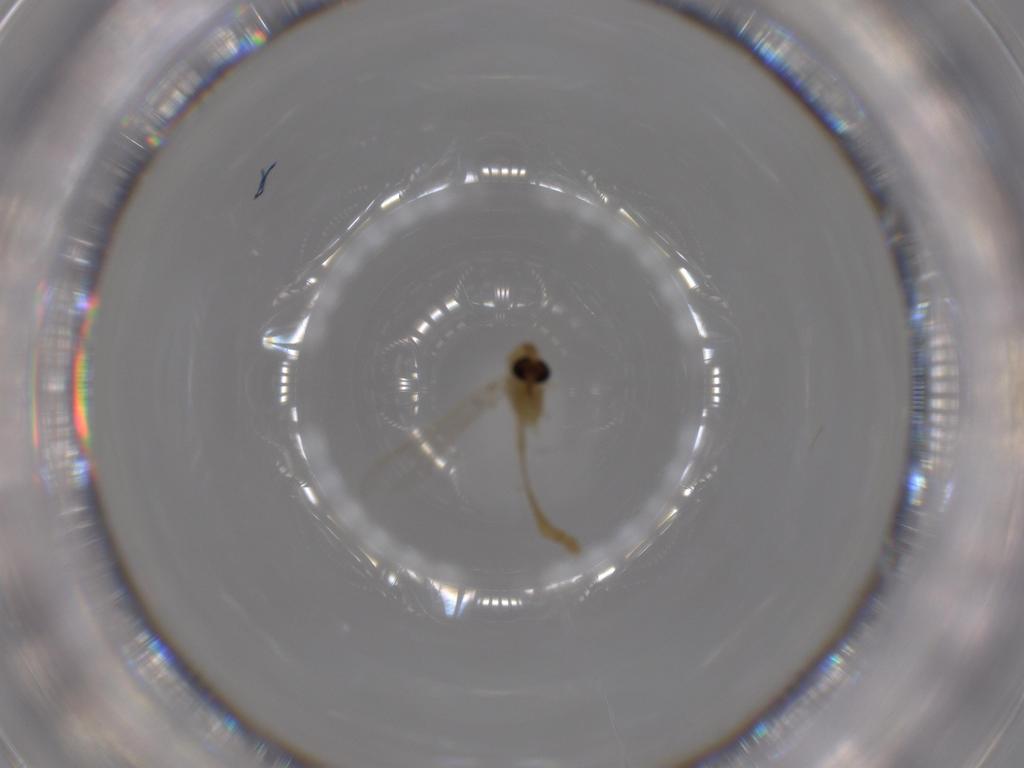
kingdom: Animalia
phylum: Arthropoda
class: Insecta
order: Diptera
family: Chironomidae
